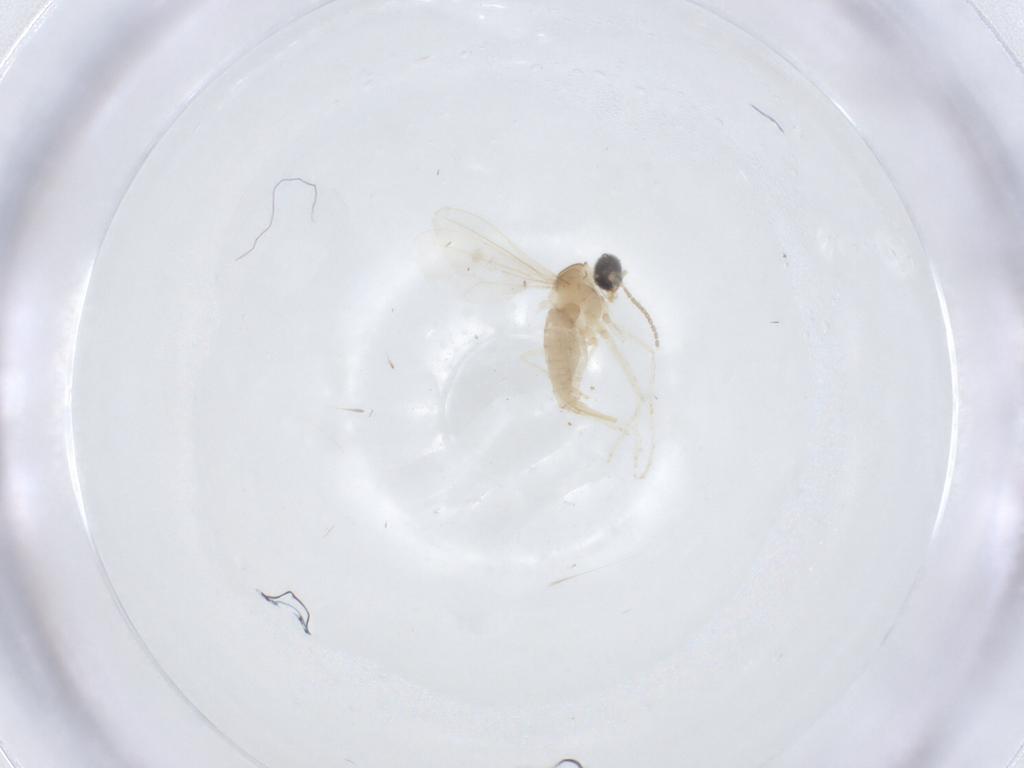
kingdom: Animalia
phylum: Arthropoda
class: Insecta
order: Diptera
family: Cecidomyiidae
